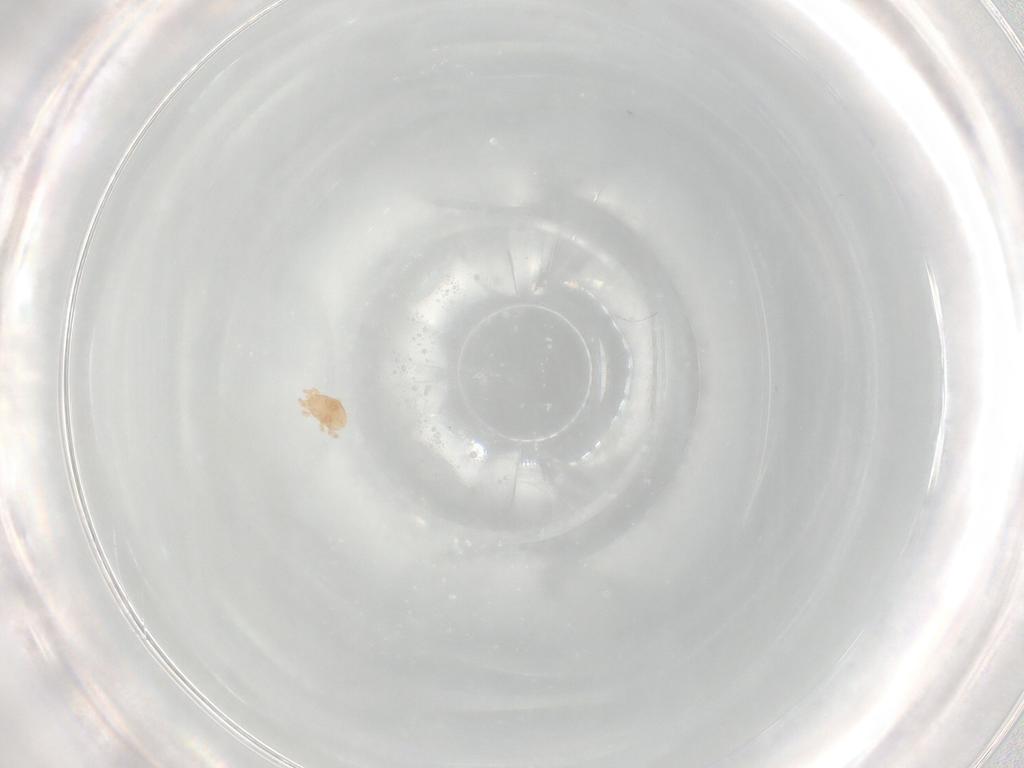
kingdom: Animalia
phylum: Arthropoda
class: Arachnida
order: Mesostigmata
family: Melicharidae
